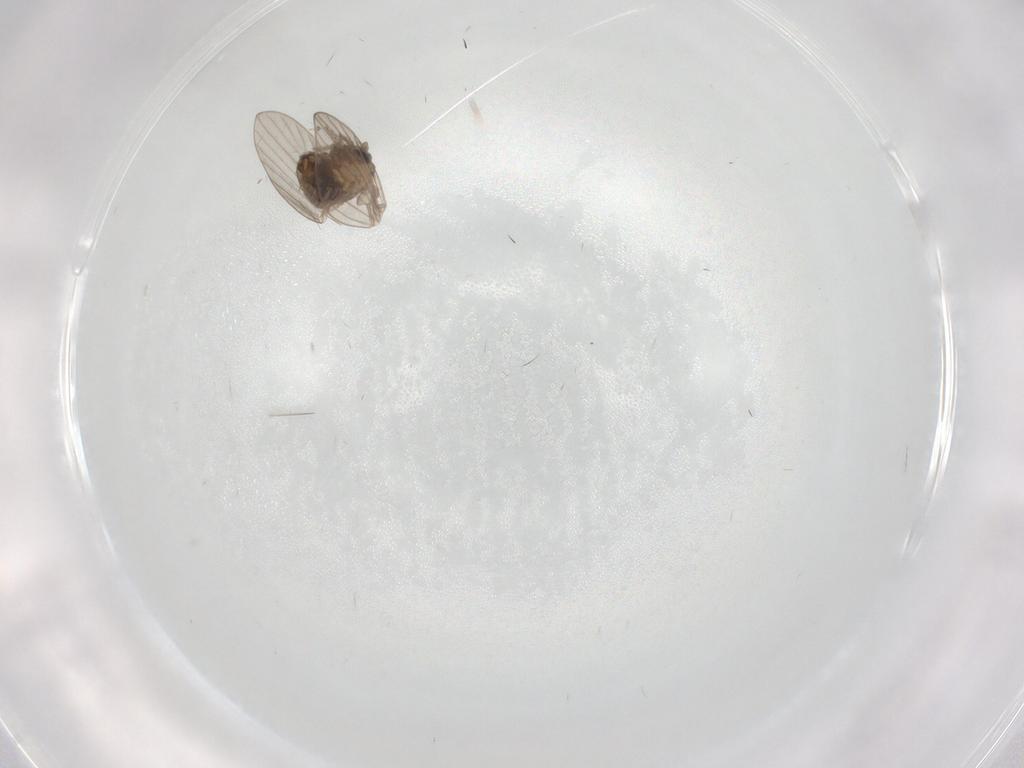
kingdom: Animalia
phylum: Arthropoda
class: Insecta
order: Diptera
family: Psychodidae
